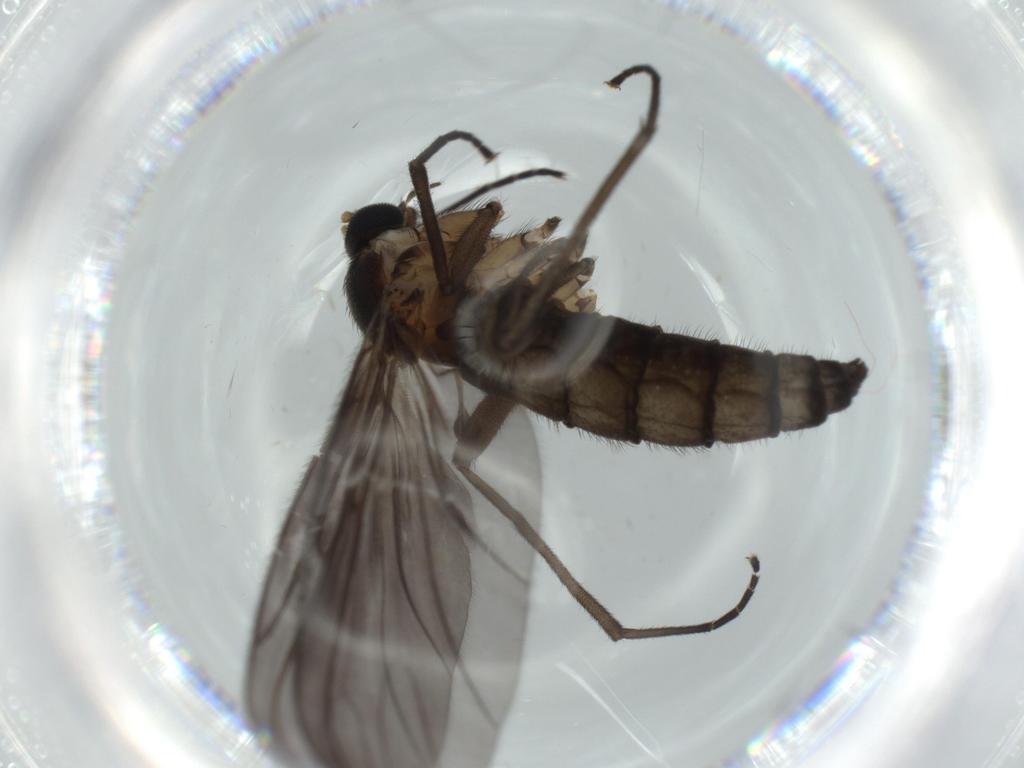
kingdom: Animalia
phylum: Arthropoda
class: Insecta
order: Diptera
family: Sciaridae
